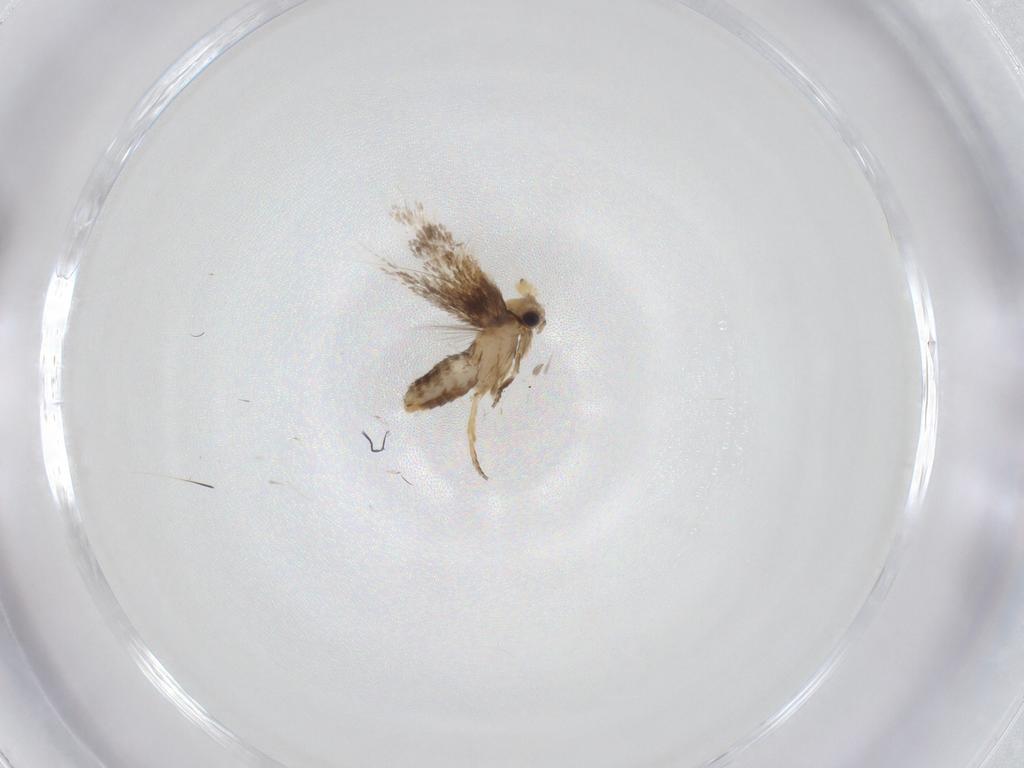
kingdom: Animalia
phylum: Arthropoda
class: Insecta
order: Lepidoptera
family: Nepticulidae
